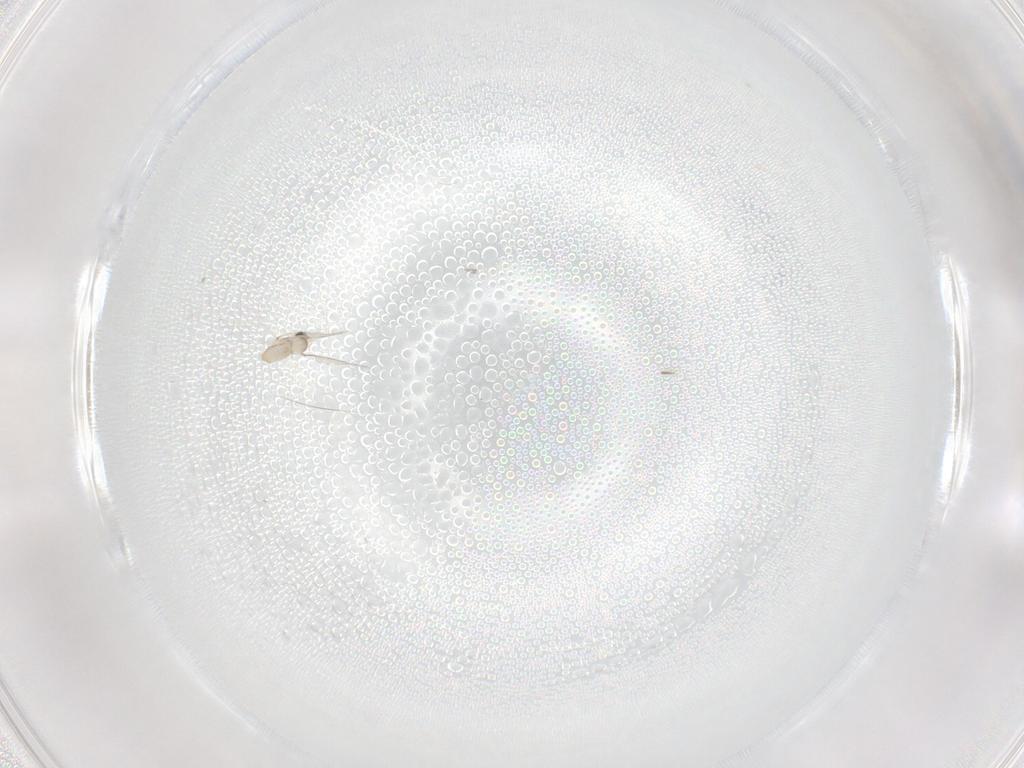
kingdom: Animalia
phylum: Arthropoda
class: Insecta
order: Diptera
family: Cecidomyiidae
